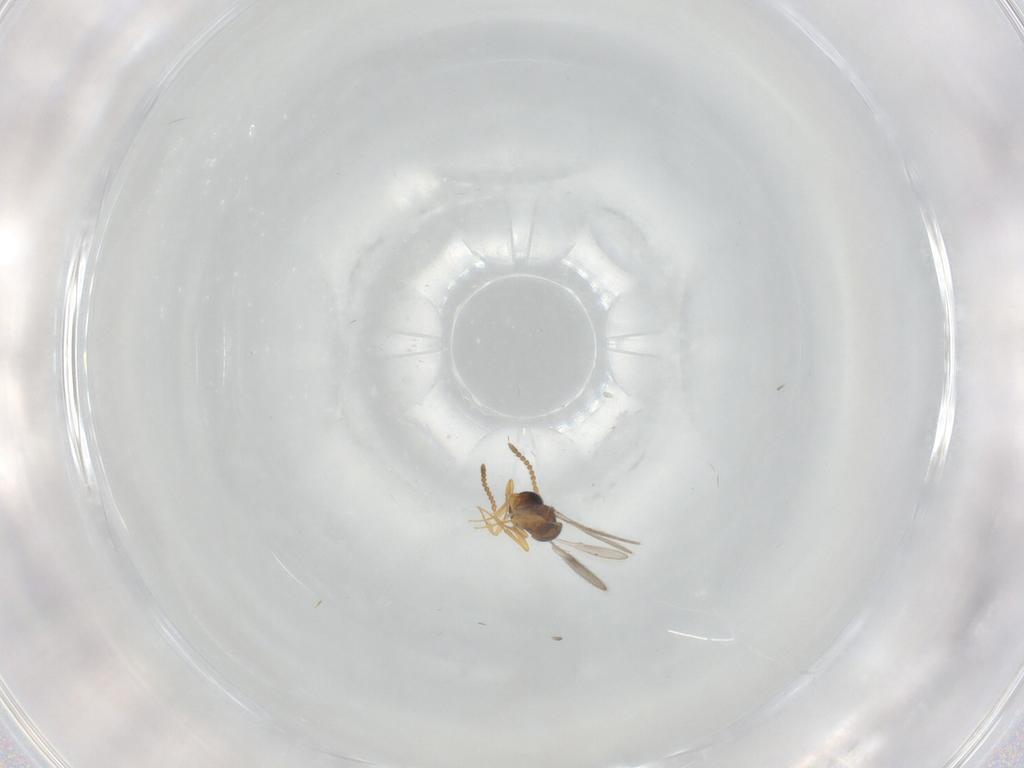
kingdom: Animalia
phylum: Arthropoda
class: Insecta
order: Hymenoptera
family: Scelionidae
